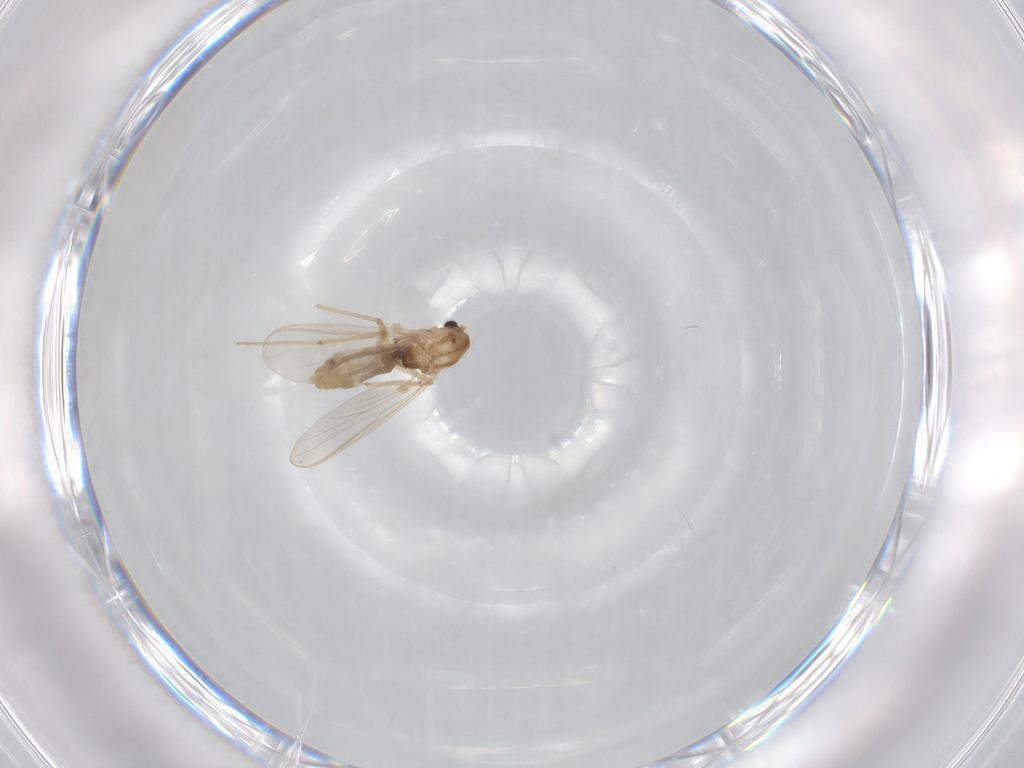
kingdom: Animalia
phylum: Arthropoda
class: Insecta
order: Diptera
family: Chironomidae
